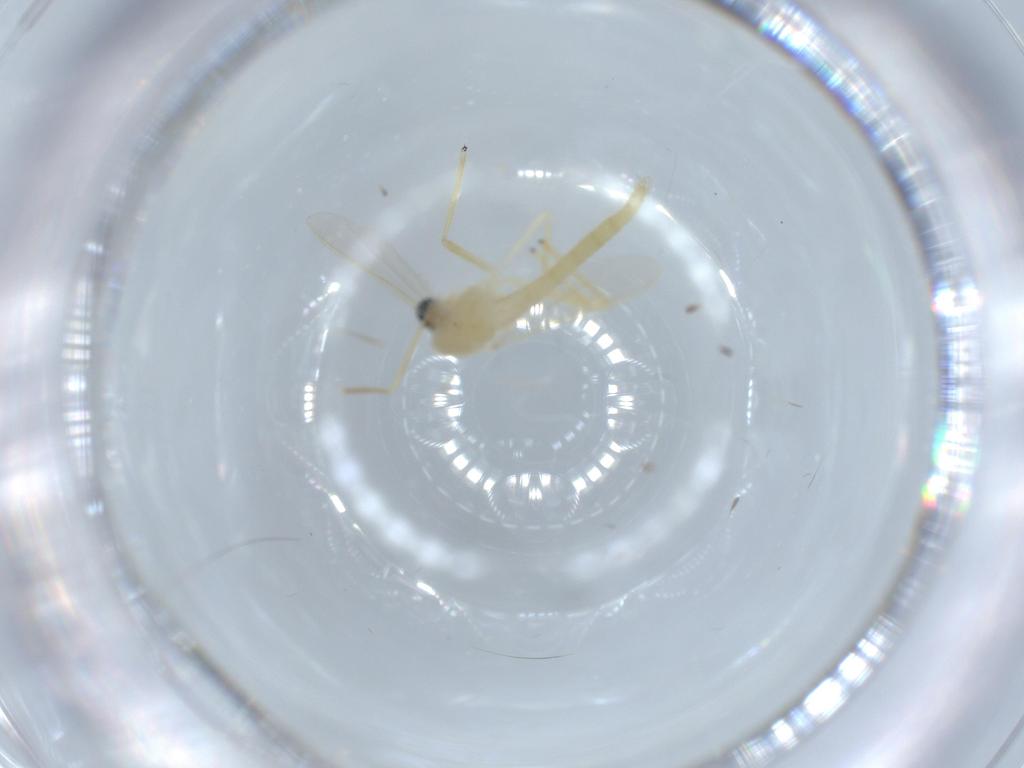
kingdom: Animalia
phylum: Arthropoda
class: Insecta
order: Diptera
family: Chironomidae
